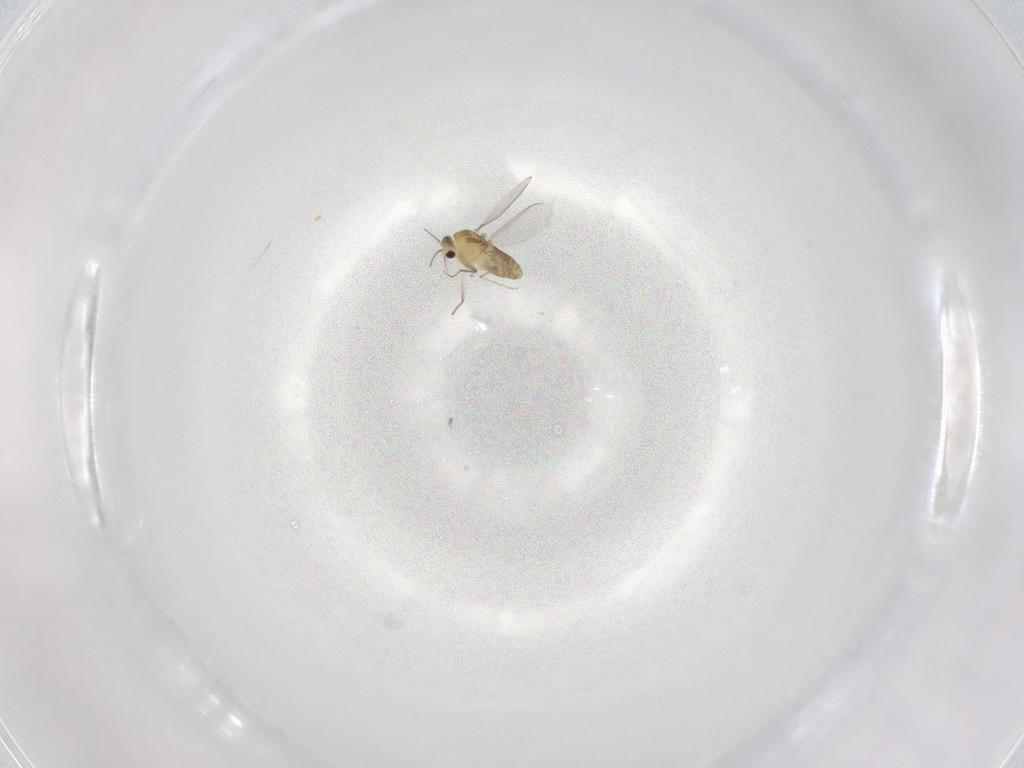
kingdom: Animalia
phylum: Arthropoda
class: Insecta
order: Diptera
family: Chironomidae
